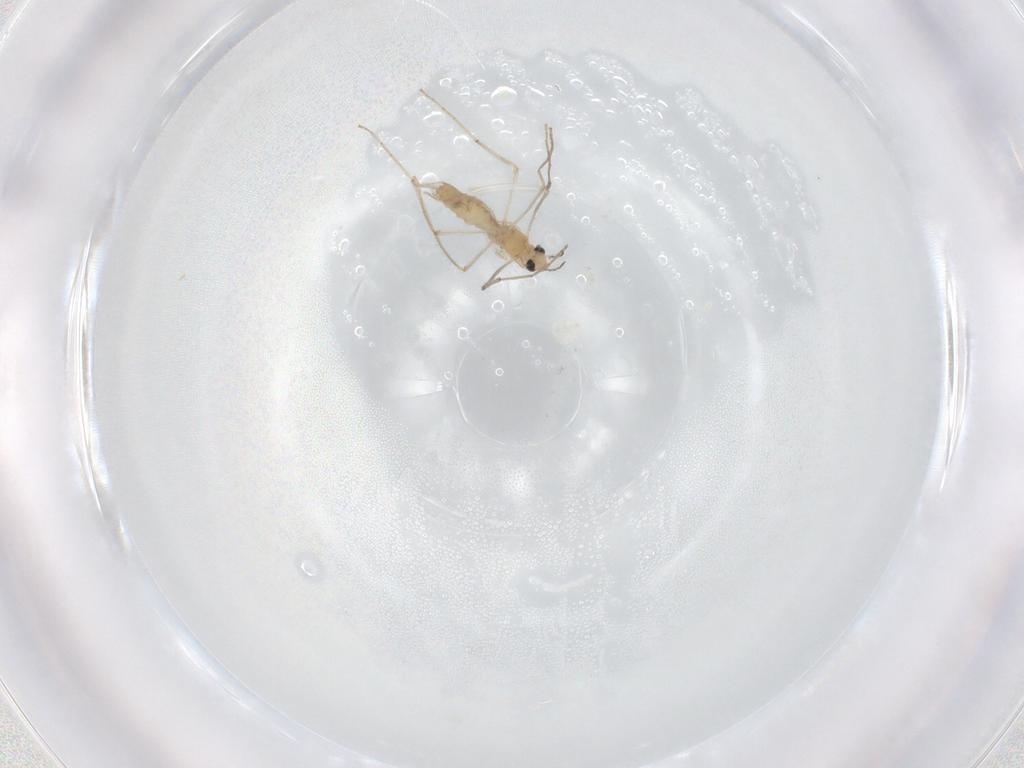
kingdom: Animalia
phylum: Arthropoda
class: Insecta
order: Diptera
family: Chironomidae
